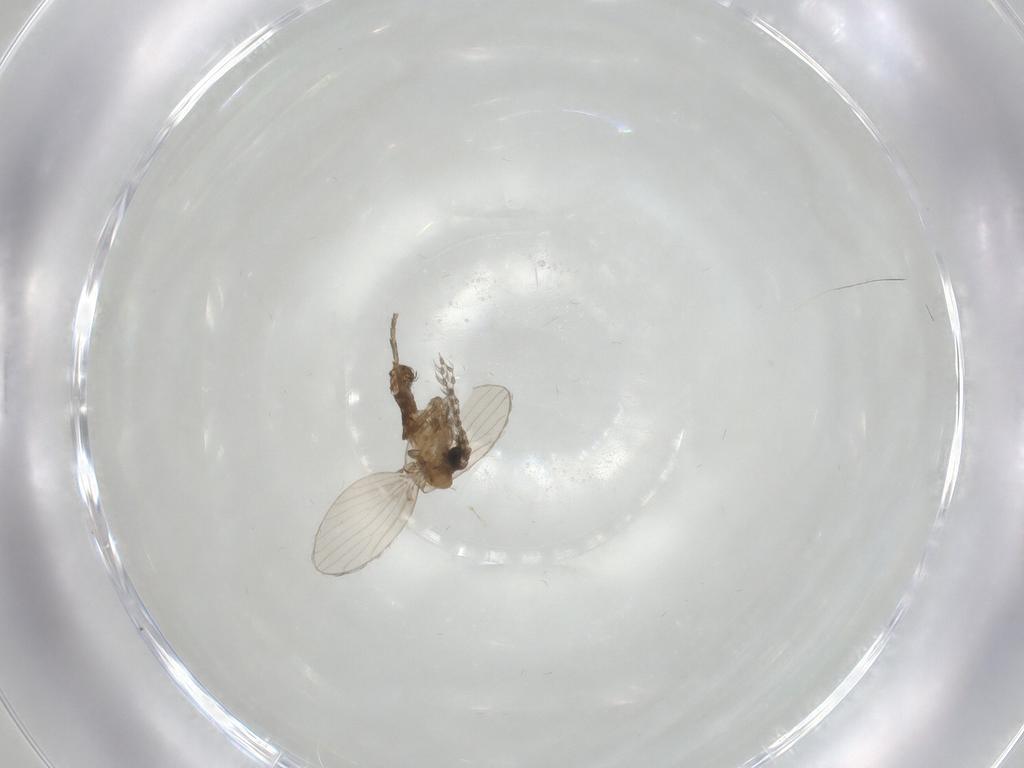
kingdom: Animalia
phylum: Arthropoda
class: Insecta
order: Diptera
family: Psychodidae
